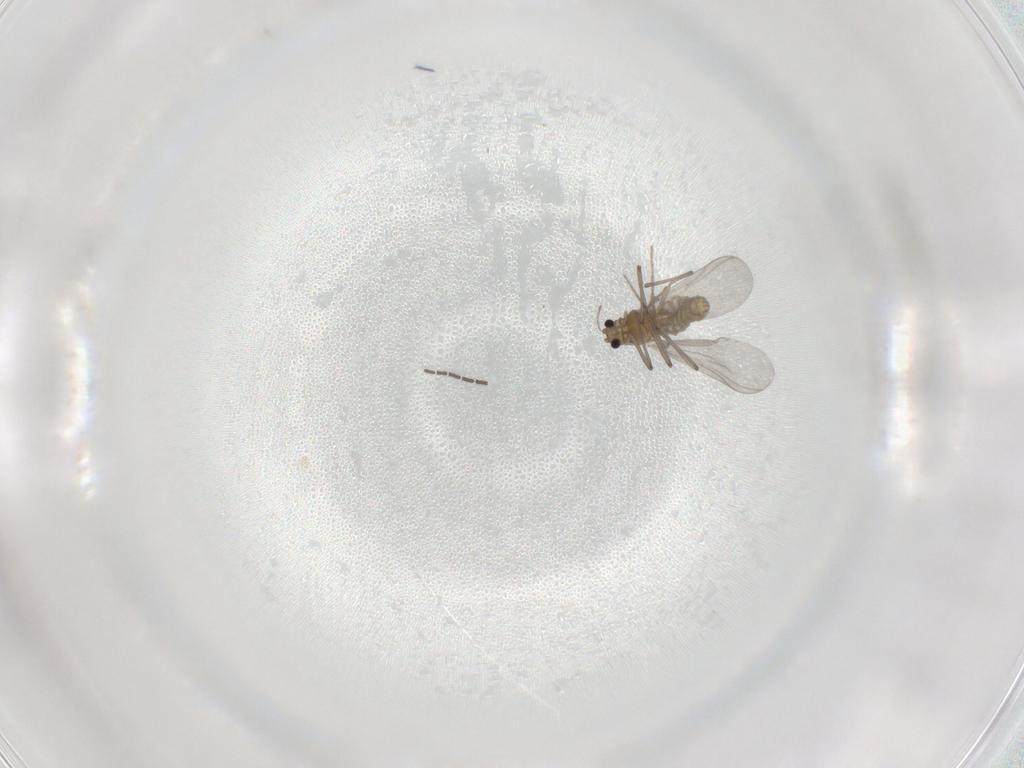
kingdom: Animalia
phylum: Arthropoda
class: Insecta
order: Diptera
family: Chironomidae
